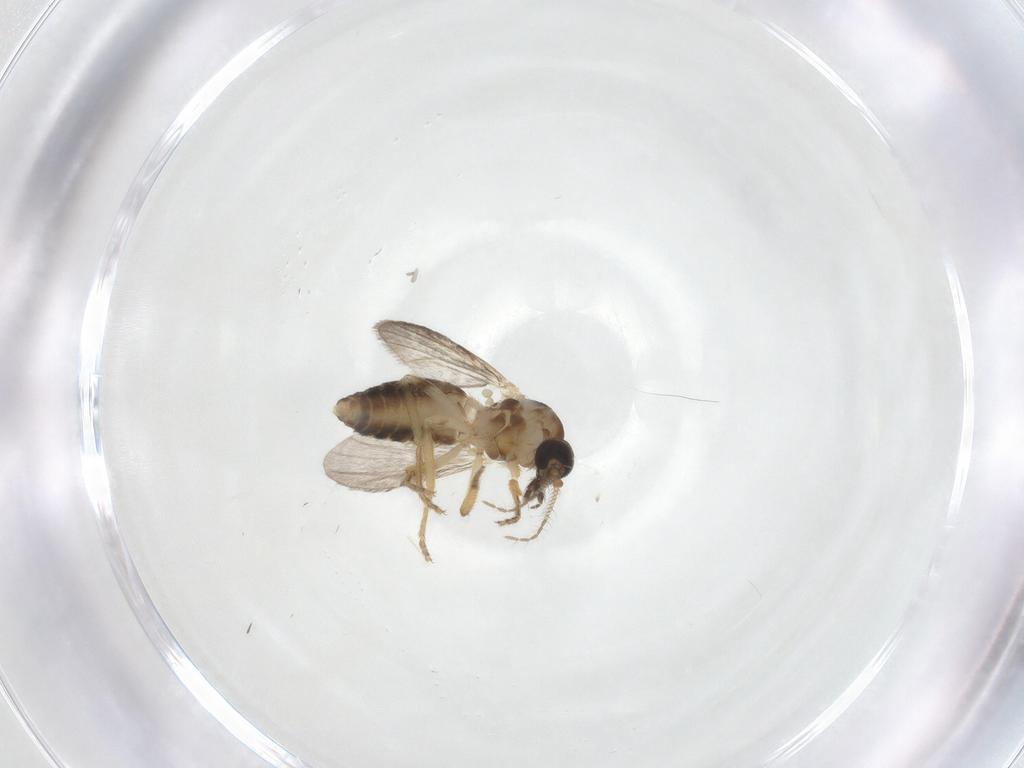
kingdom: Animalia
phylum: Arthropoda
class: Insecta
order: Diptera
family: Ceratopogonidae
